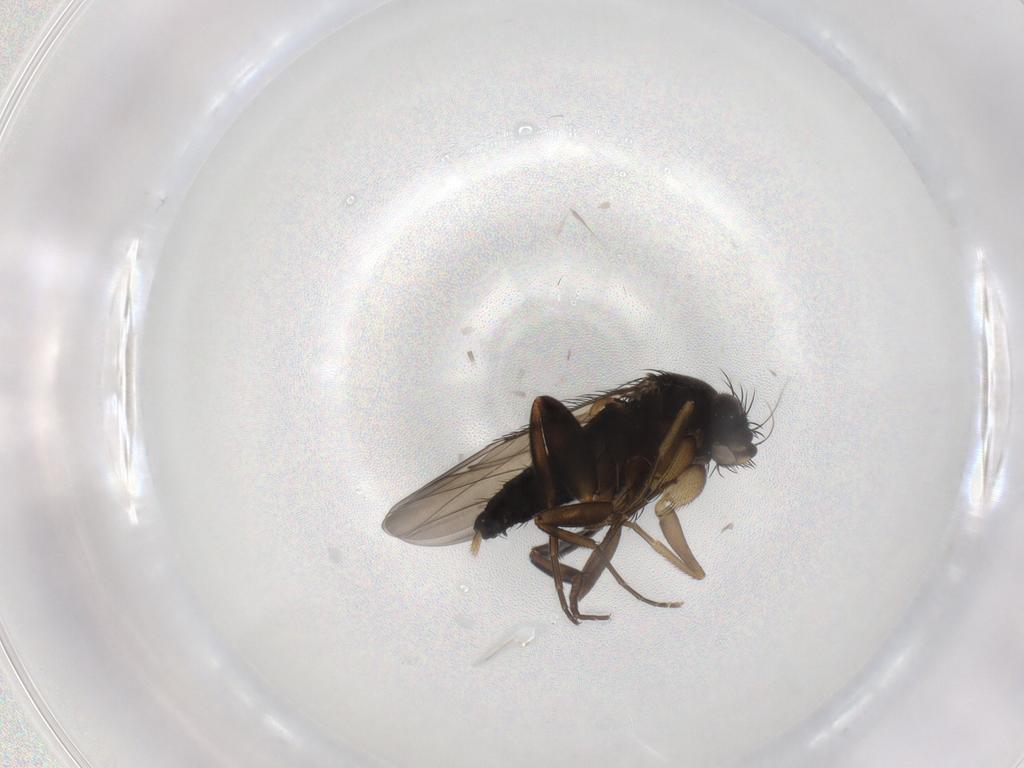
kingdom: Animalia
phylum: Arthropoda
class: Insecta
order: Diptera
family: Phoridae
